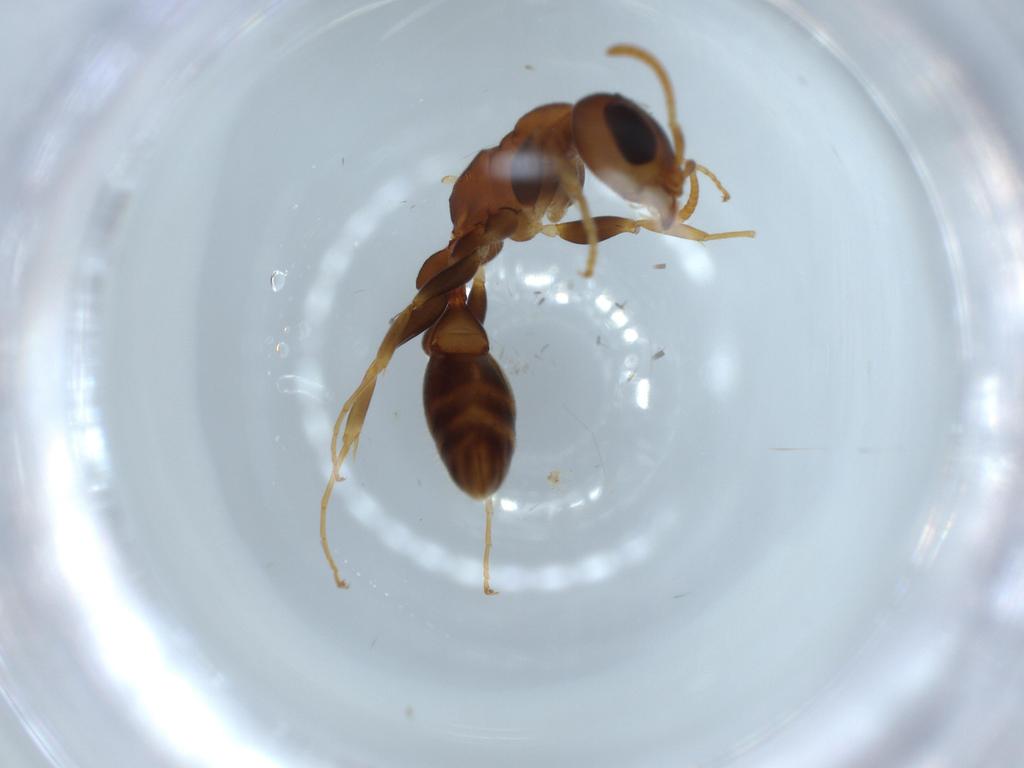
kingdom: Animalia
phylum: Arthropoda
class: Insecta
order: Hymenoptera
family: Formicidae
